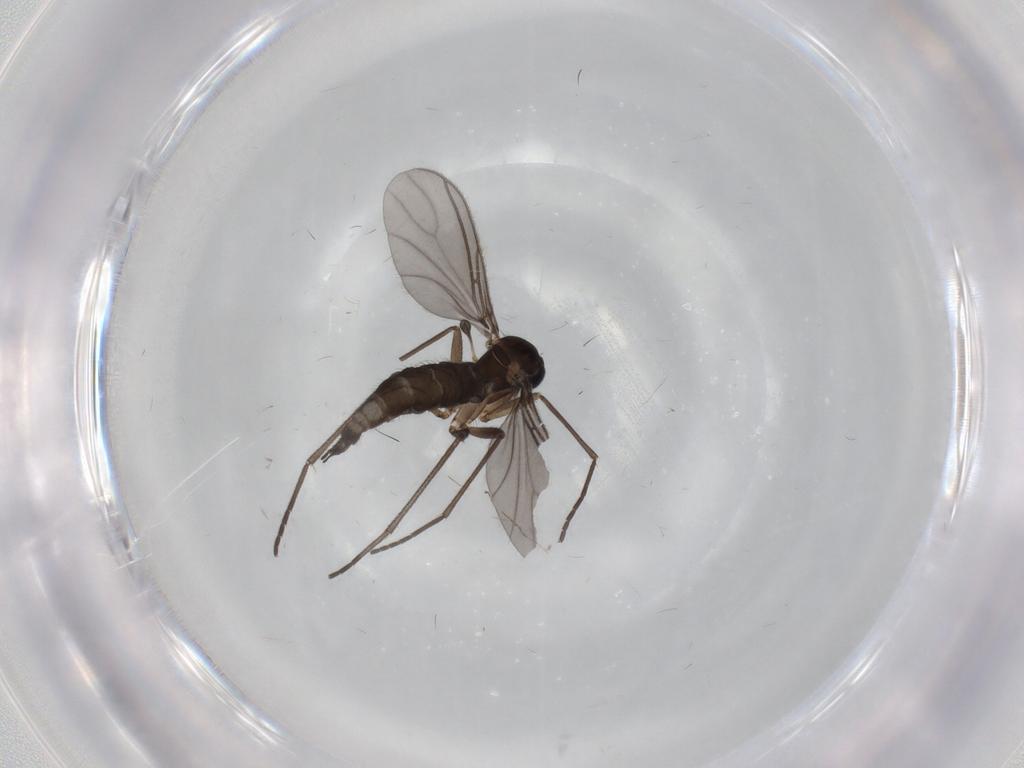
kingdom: Animalia
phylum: Arthropoda
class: Insecta
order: Diptera
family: Sciaridae
